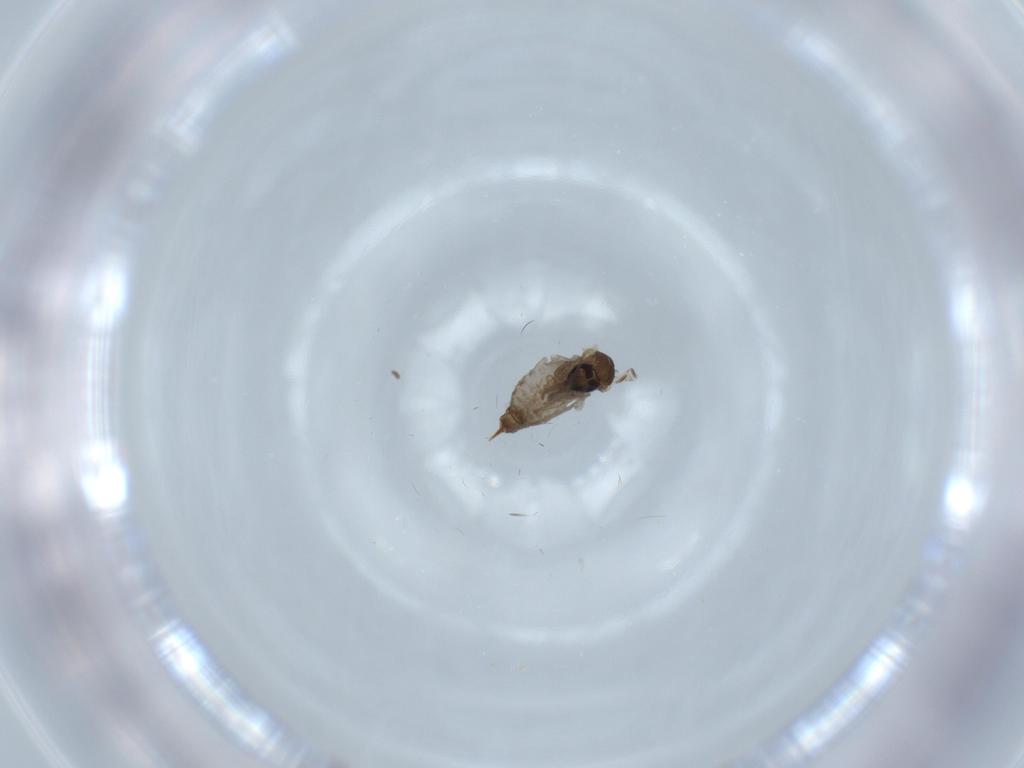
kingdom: Animalia
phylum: Arthropoda
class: Insecta
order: Diptera
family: Psychodidae
